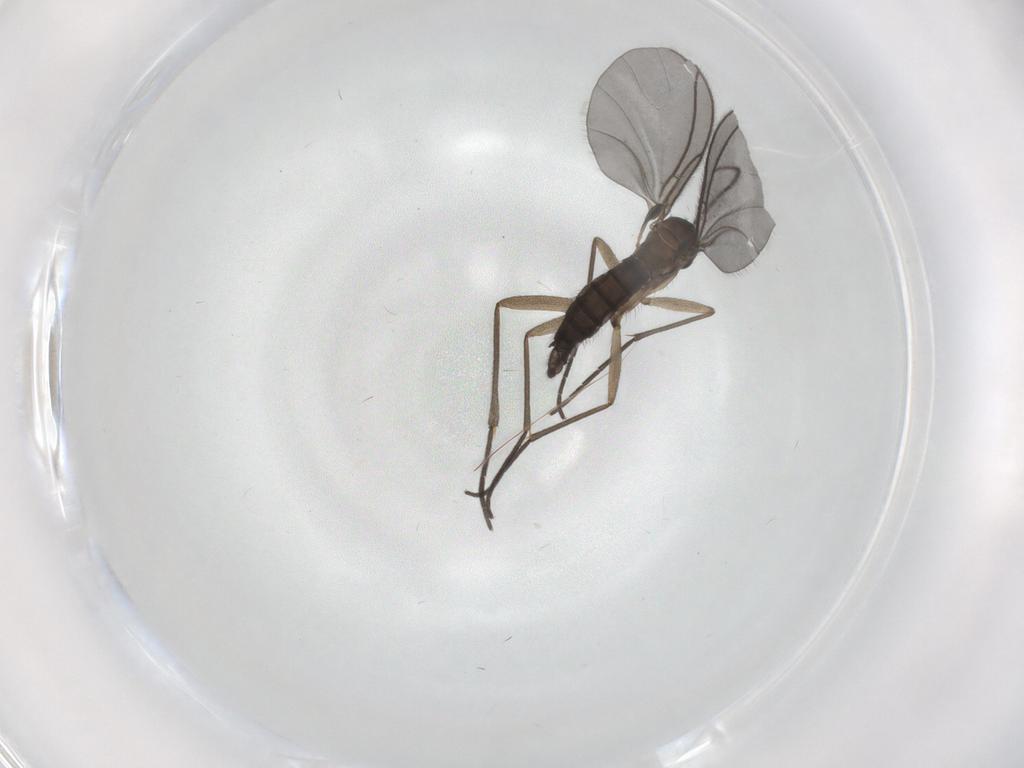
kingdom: Animalia
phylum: Arthropoda
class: Insecta
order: Diptera
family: Sciaridae
